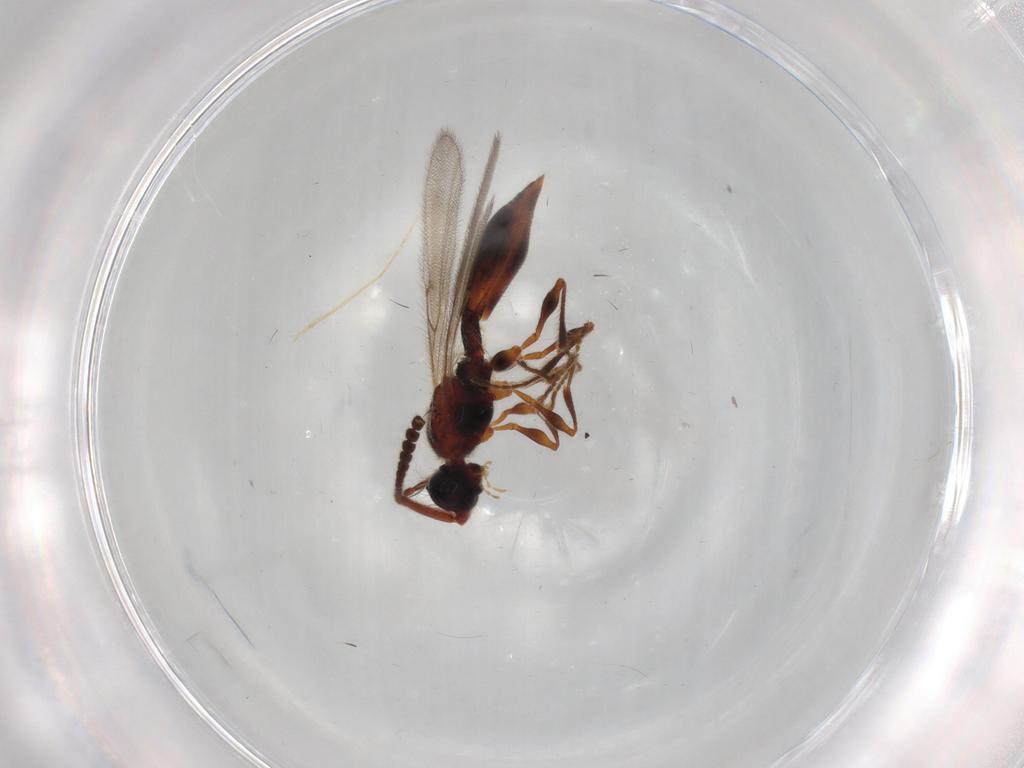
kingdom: Animalia
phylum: Arthropoda
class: Insecta
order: Hymenoptera
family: Diapriidae
